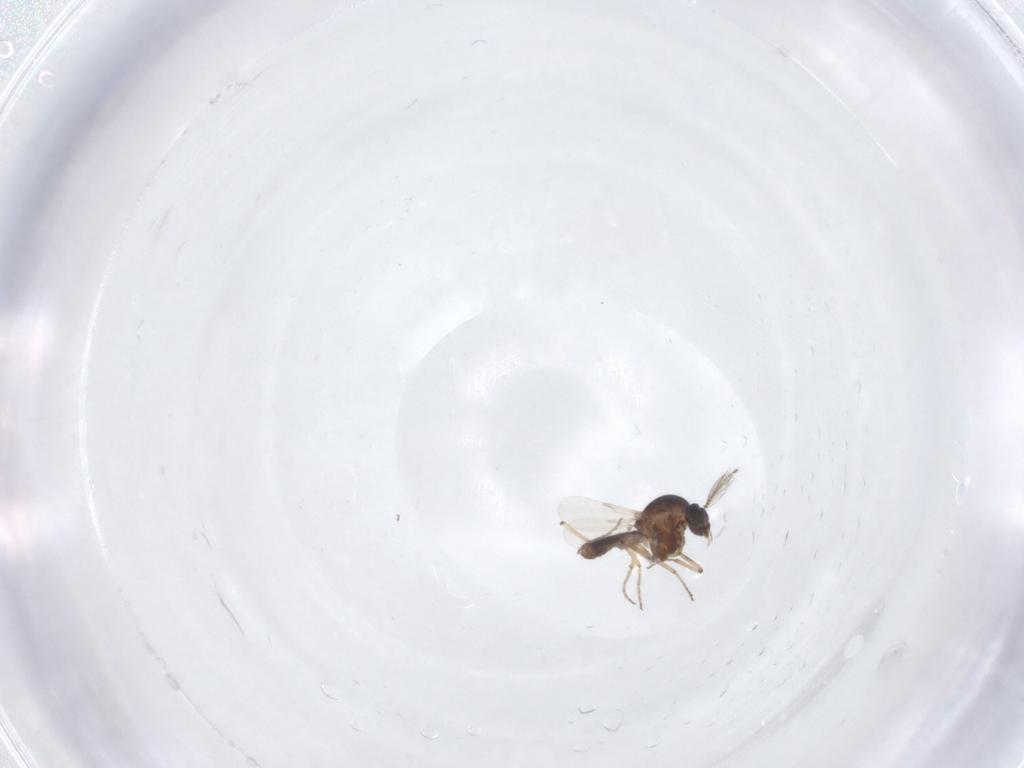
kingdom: Animalia
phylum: Arthropoda
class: Insecta
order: Diptera
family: Ceratopogonidae
